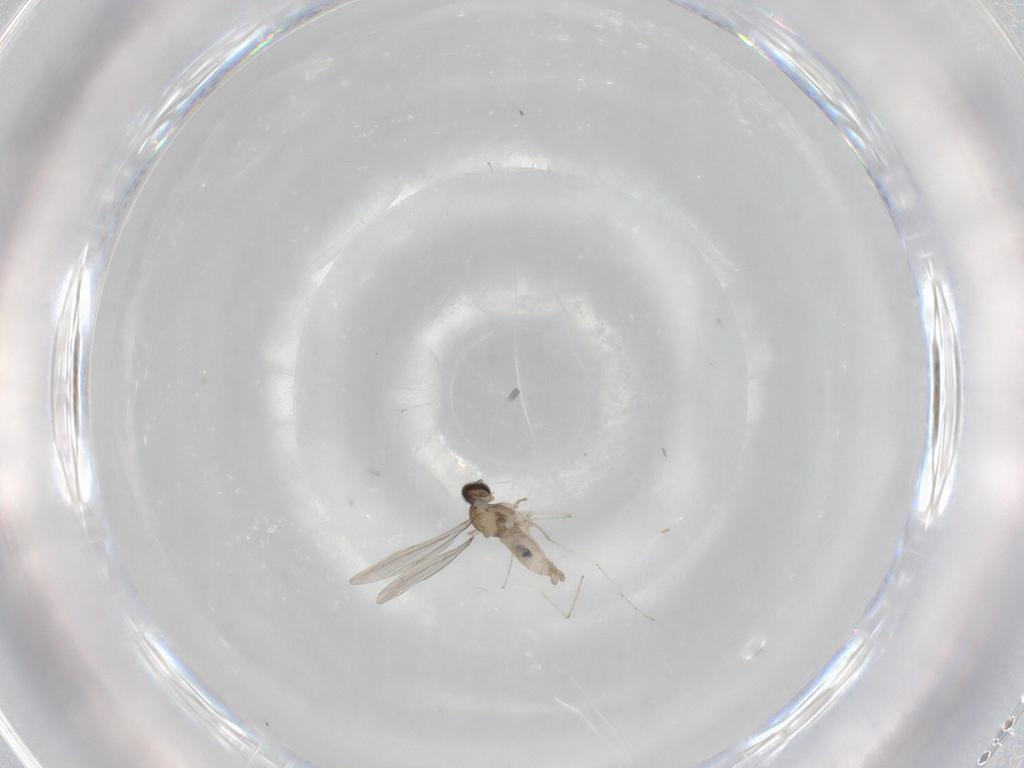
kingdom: Animalia
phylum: Arthropoda
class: Insecta
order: Diptera
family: Cecidomyiidae
